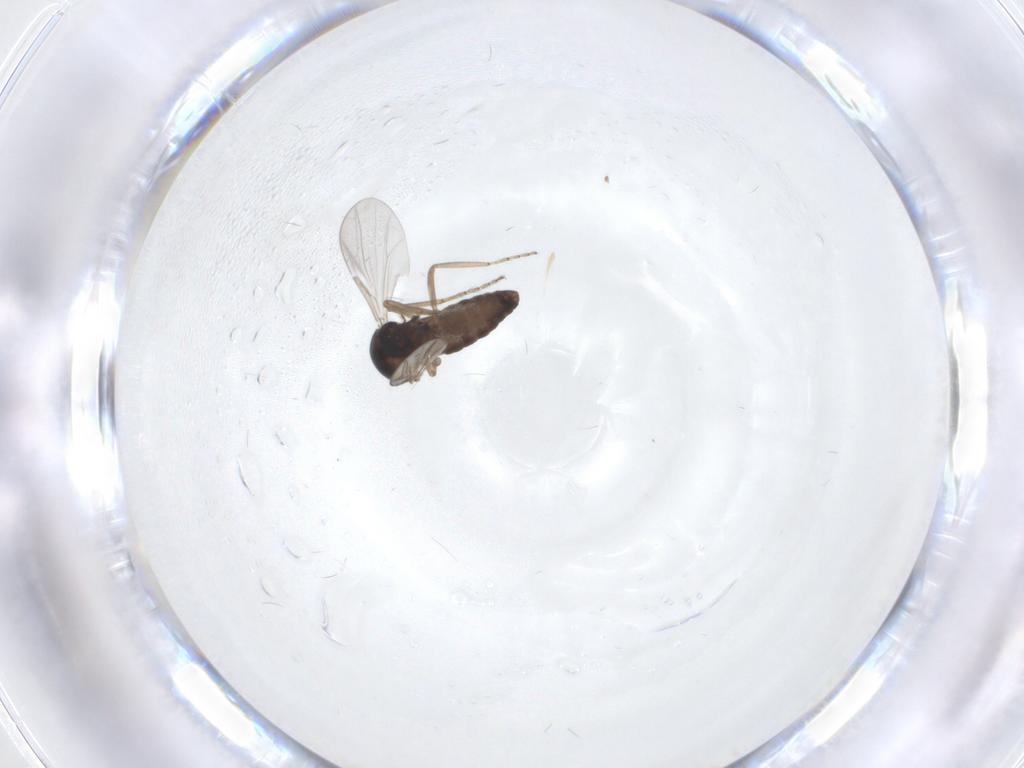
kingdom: Animalia
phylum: Arthropoda
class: Insecta
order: Diptera
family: Ceratopogonidae
